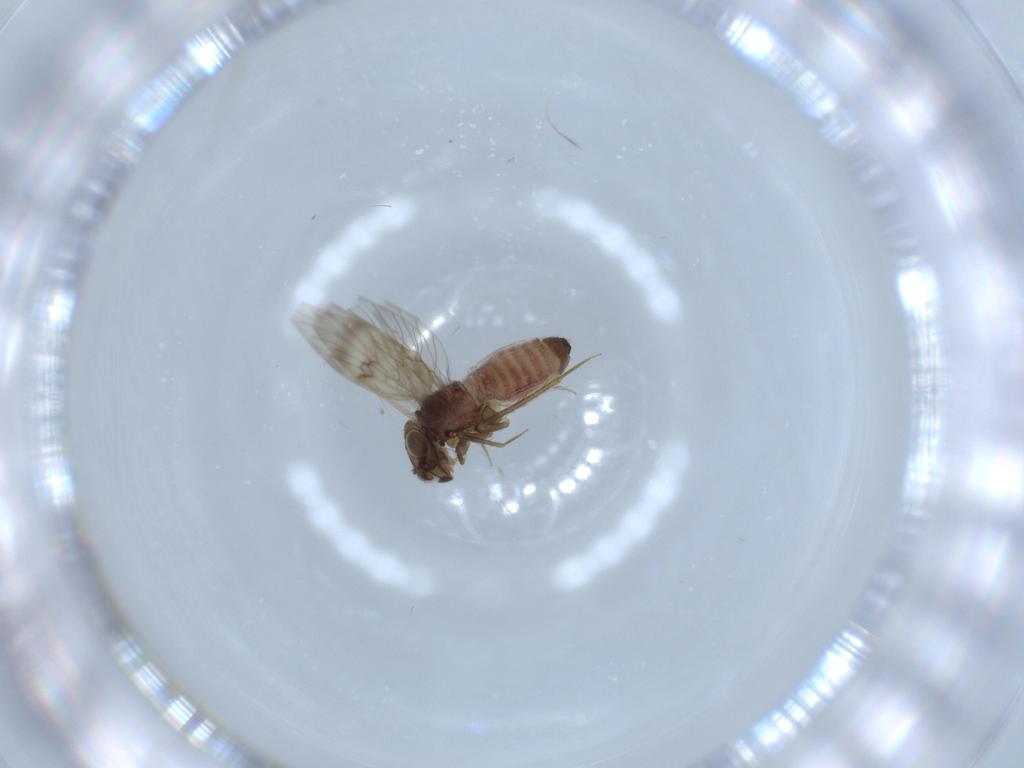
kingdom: Animalia
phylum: Arthropoda
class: Insecta
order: Psocodea
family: Lepidopsocidae
